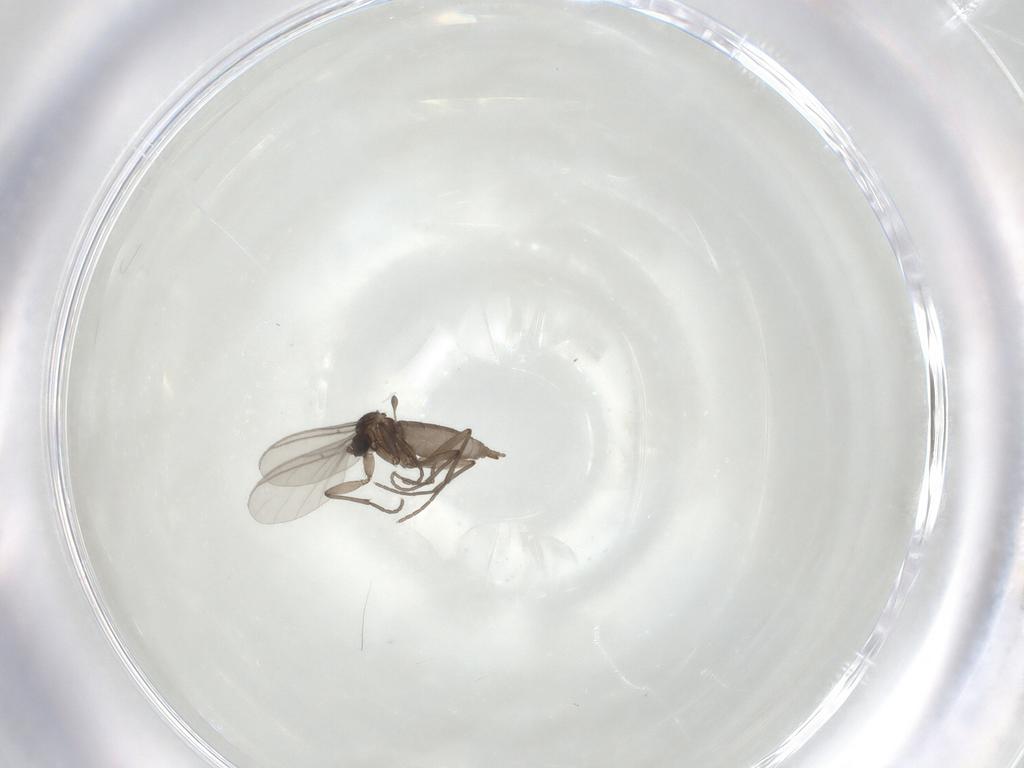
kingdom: Animalia
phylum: Arthropoda
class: Insecta
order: Diptera
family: Sciaridae
